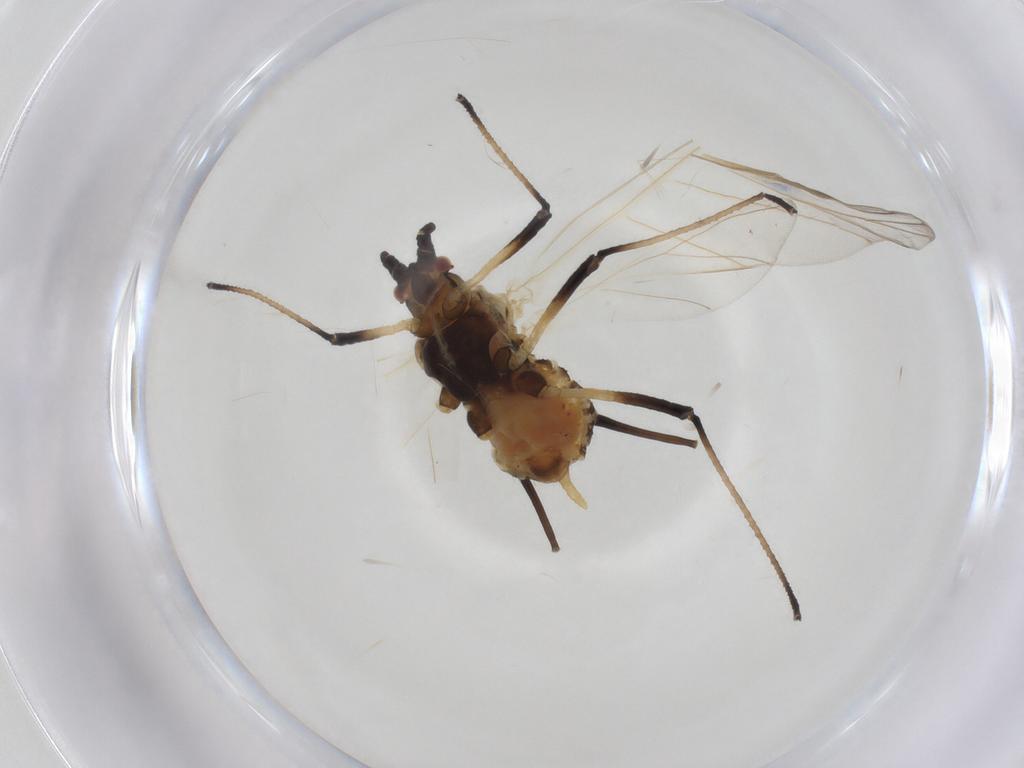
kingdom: Animalia
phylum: Arthropoda
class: Insecta
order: Hemiptera
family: Aphididae
